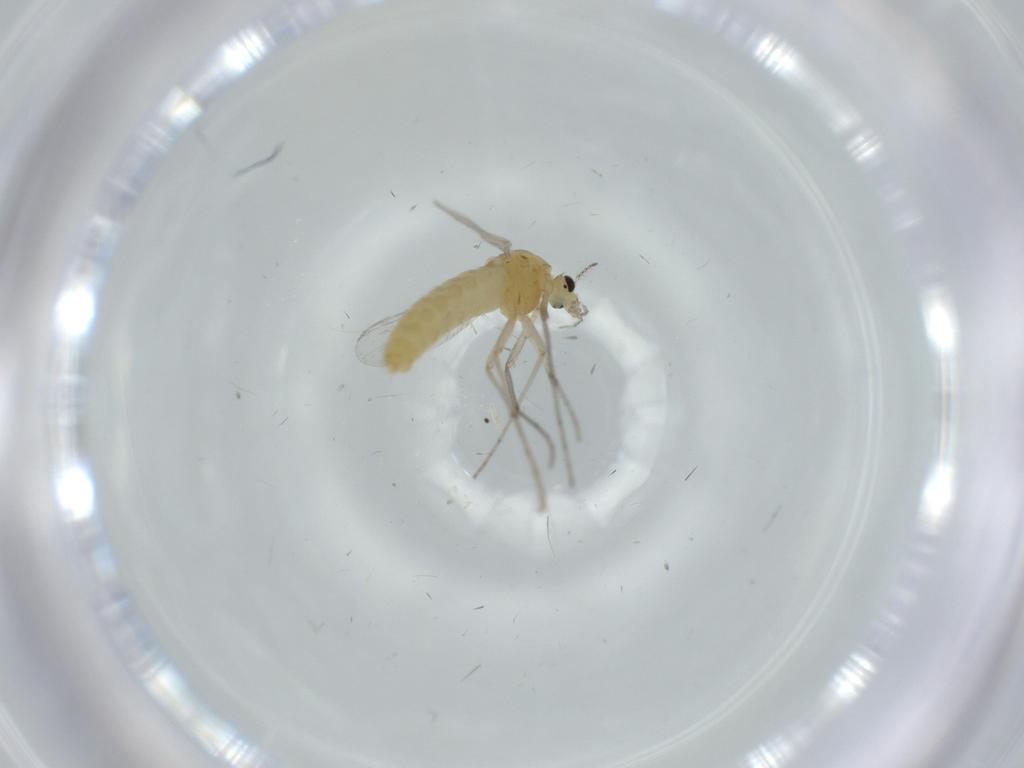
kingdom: Animalia
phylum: Arthropoda
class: Insecta
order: Diptera
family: Chironomidae
